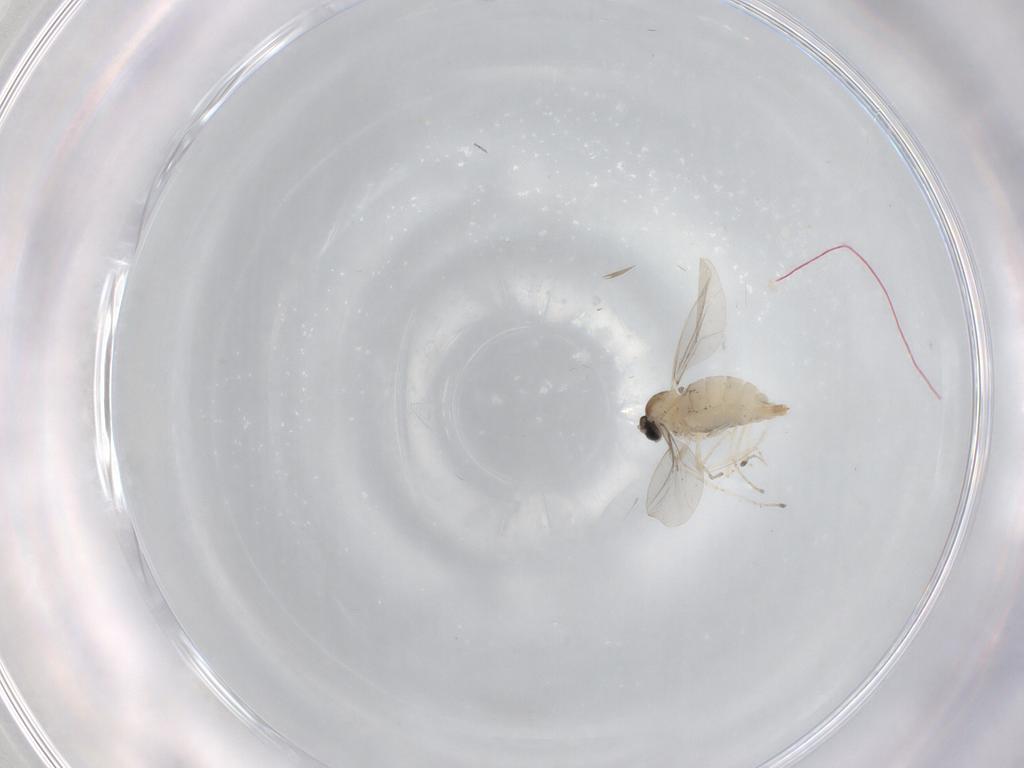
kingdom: Animalia
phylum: Arthropoda
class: Insecta
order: Diptera
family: Cecidomyiidae
